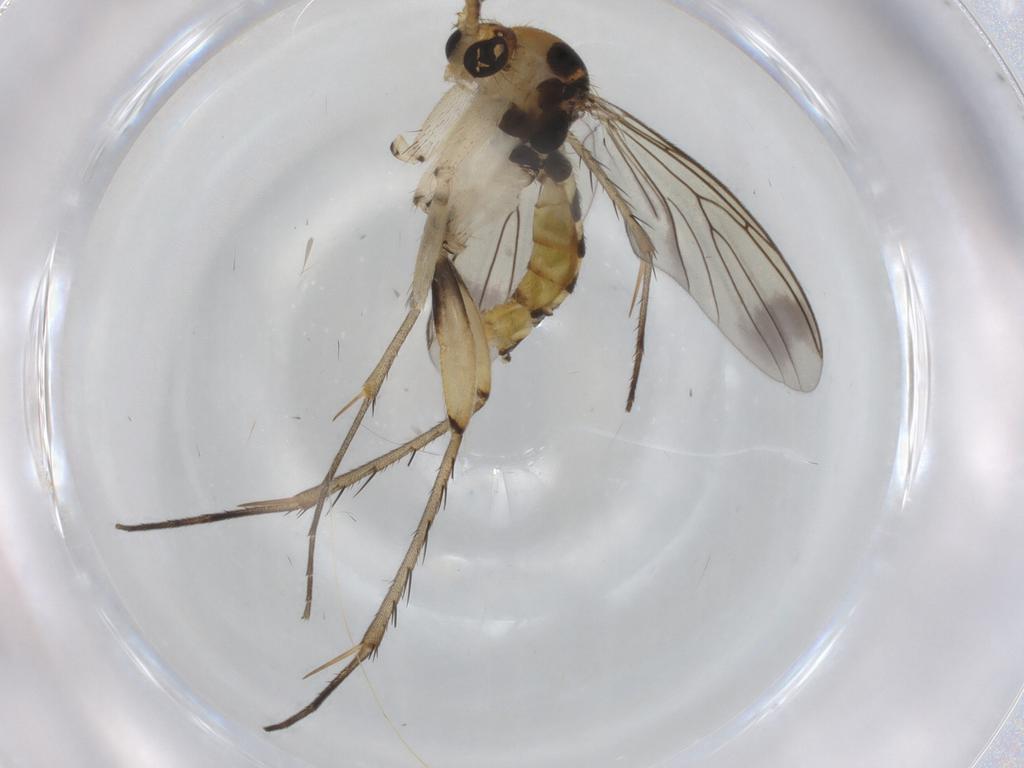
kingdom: Animalia
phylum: Arthropoda
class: Insecta
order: Diptera
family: Mycetophilidae
